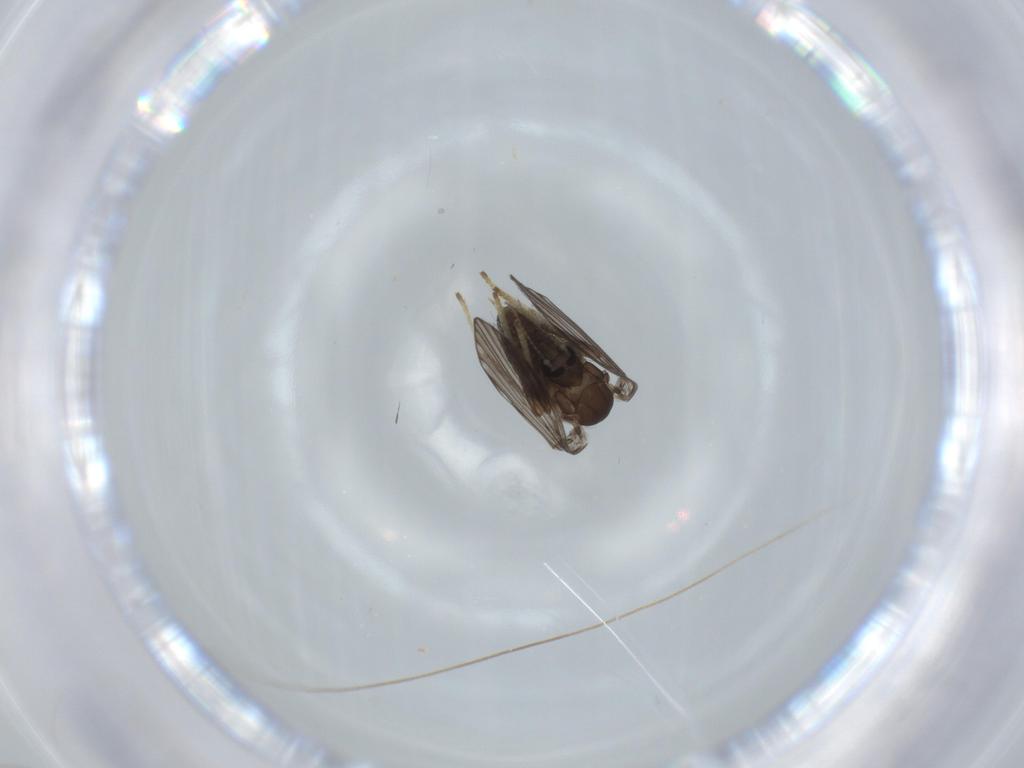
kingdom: Animalia
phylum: Arthropoda
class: Insecta
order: Diptera
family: Psychodidae
